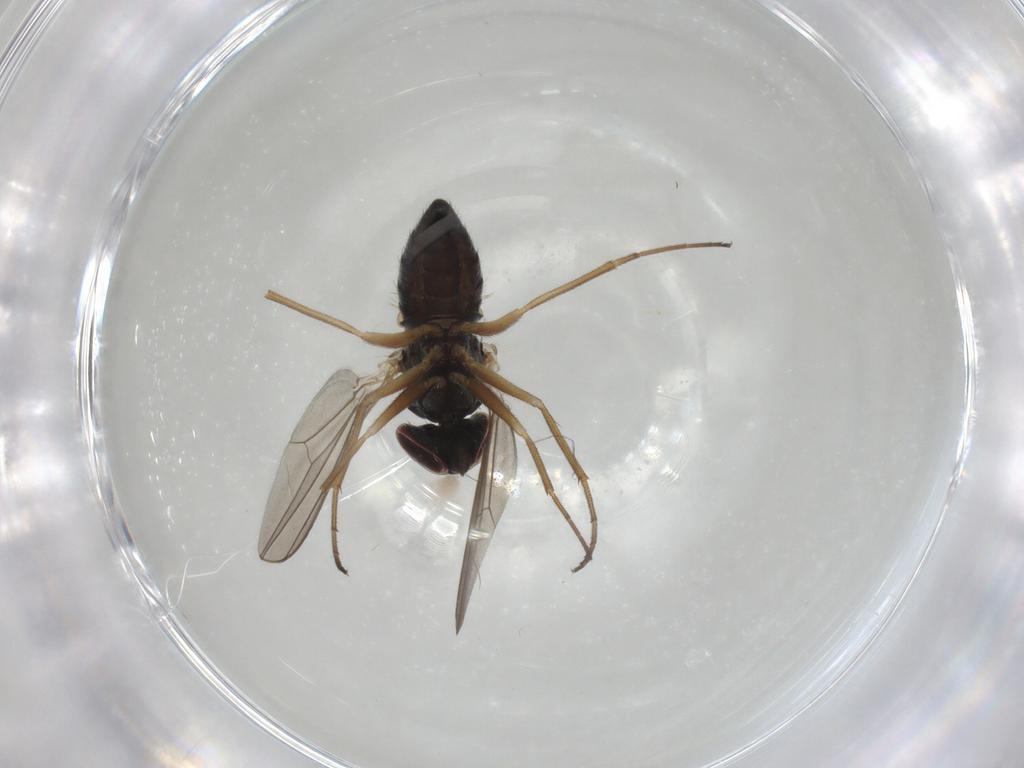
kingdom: Animalia
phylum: Arthropoda
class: Insecta
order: Diptera
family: Dolichopodidae
